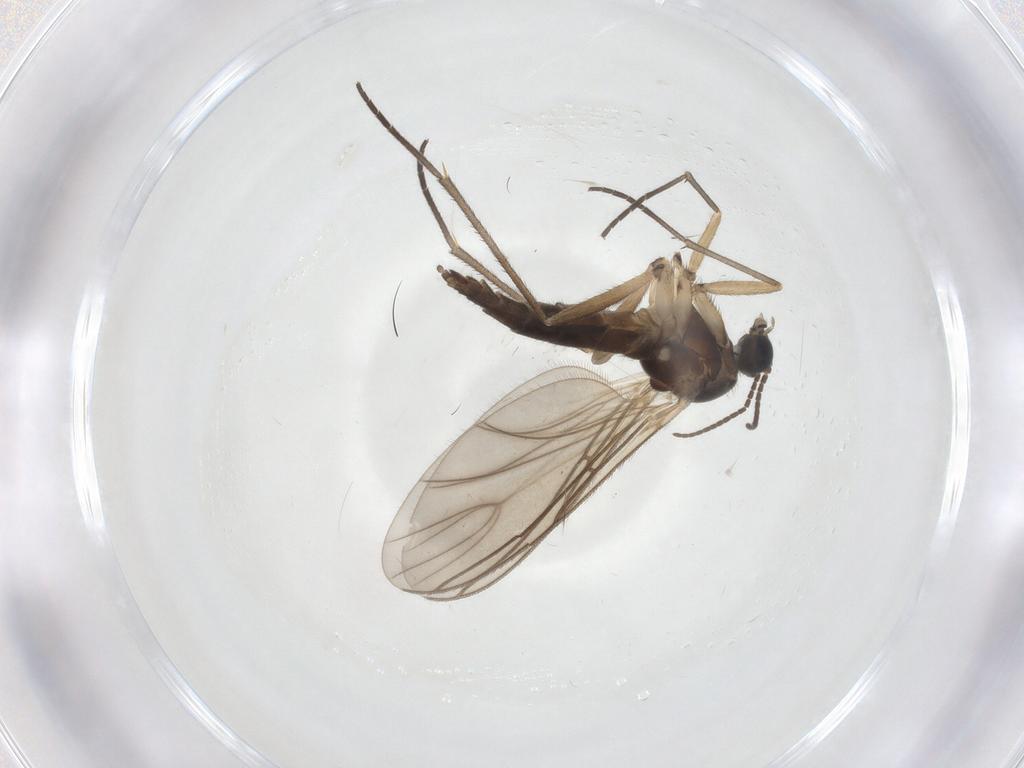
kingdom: Animalia
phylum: Arthropoda
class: Insecta
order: Diptera
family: Sciaridae
